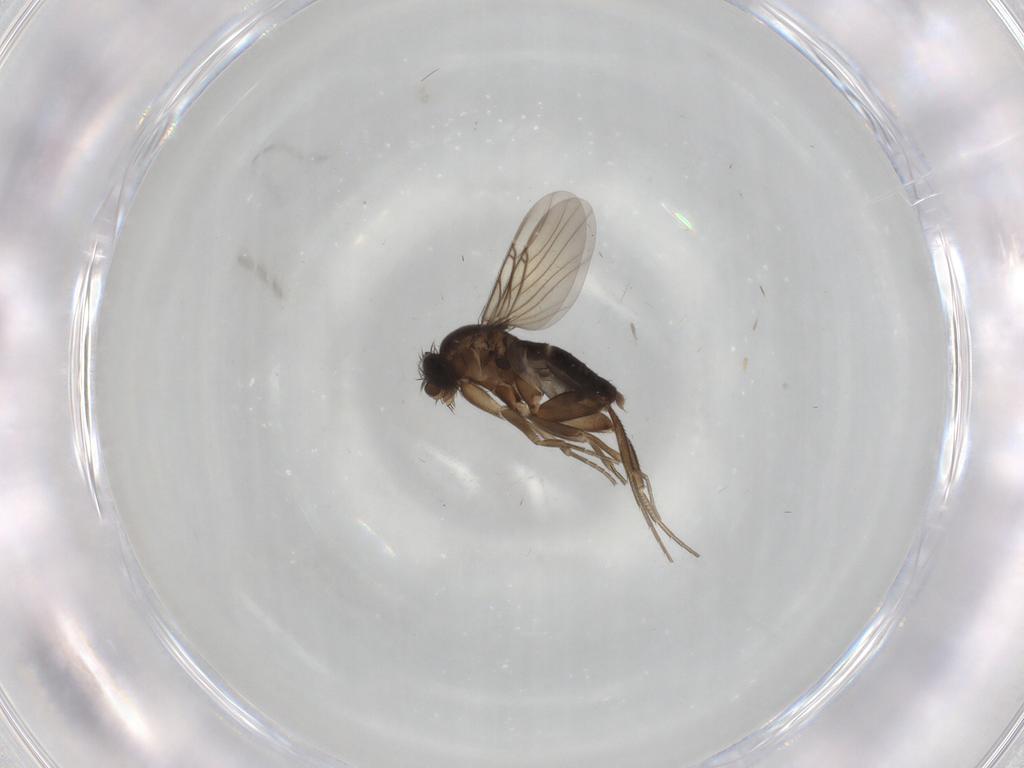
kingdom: Animalia
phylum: Arthropoda
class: Insecta
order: Diptera
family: Phoridae
